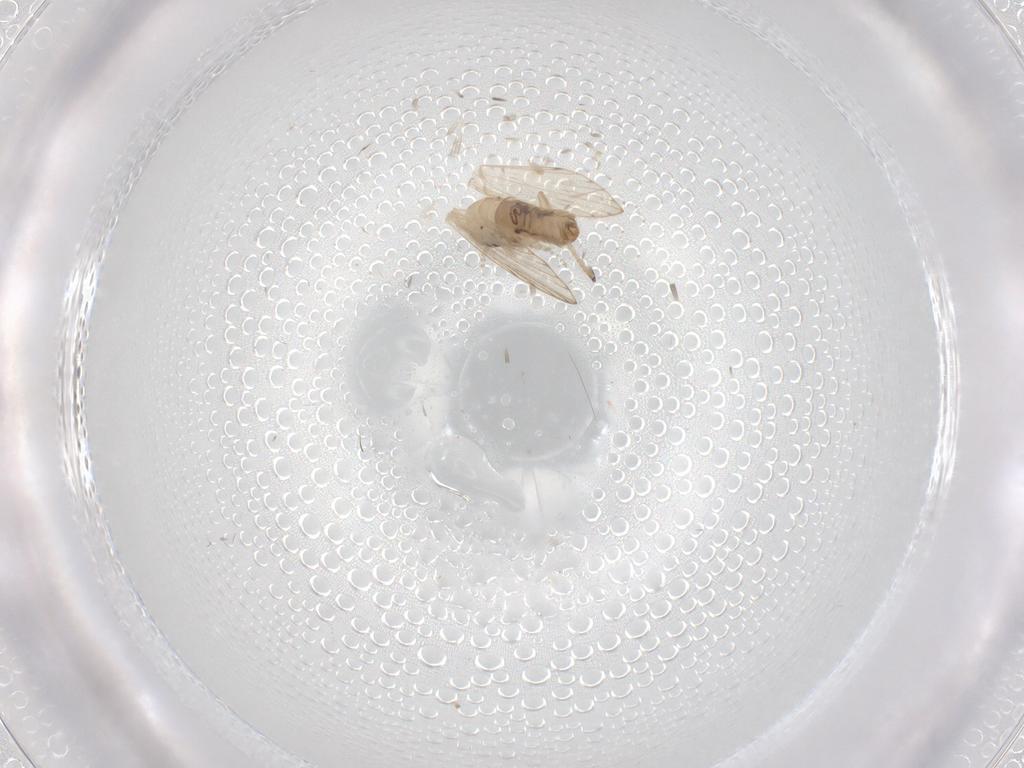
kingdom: Animalia
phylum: Arthropoda
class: Insecta
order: Diptera
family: Psychodidae
